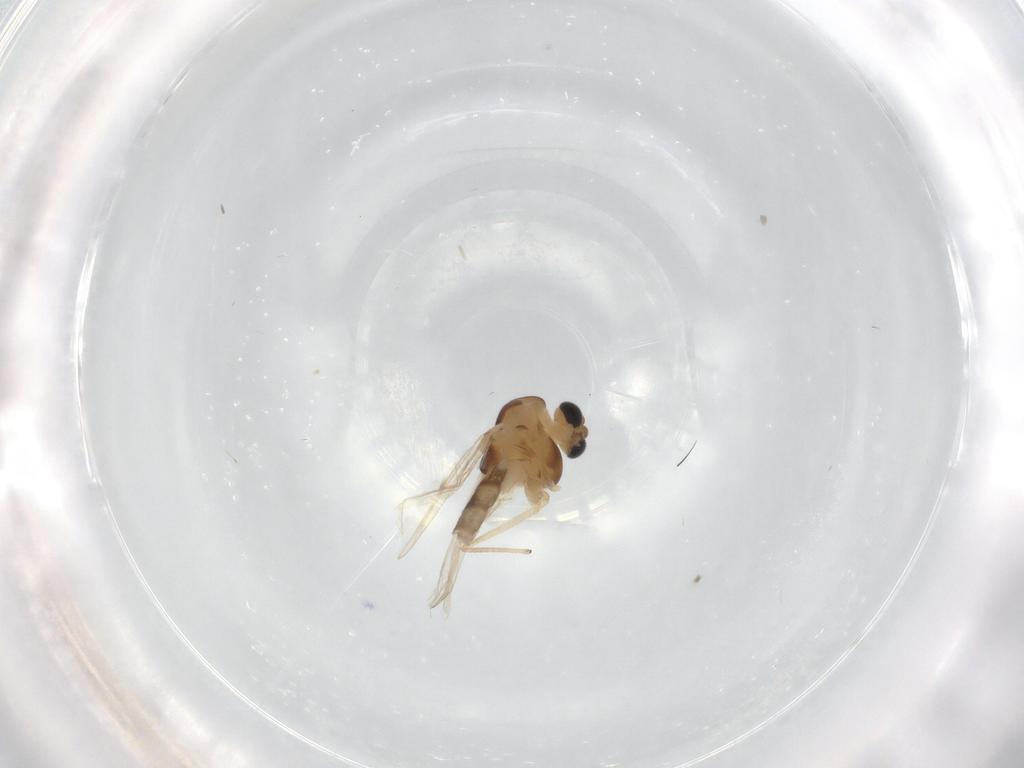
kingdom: Animalia
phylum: Arthropoda
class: Insecta
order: Diptera
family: Chironomidae
